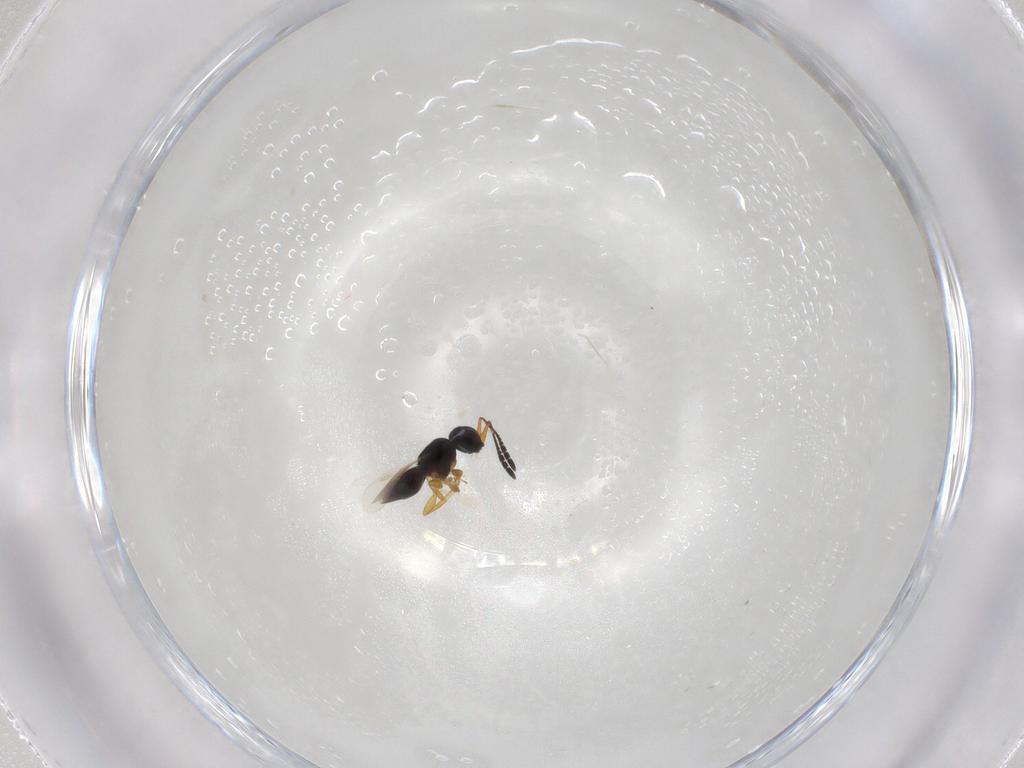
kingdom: Animalia
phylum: Arthropoda
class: Insecta
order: Hymenoptera
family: Ceraphronidae
